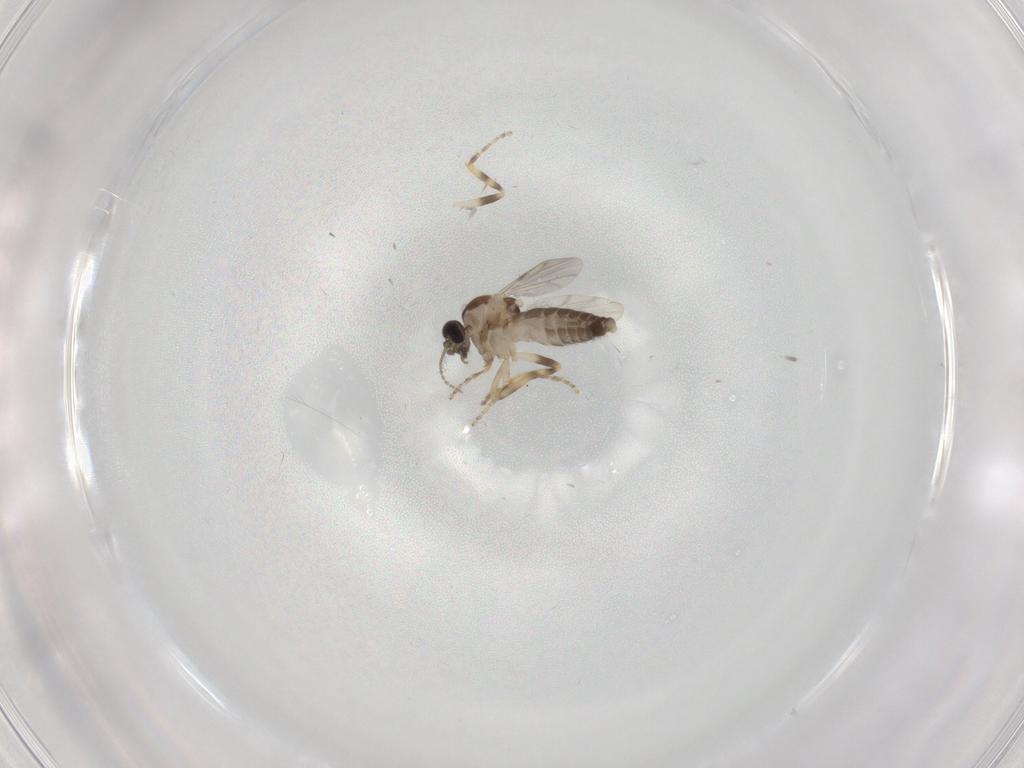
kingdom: Animalia
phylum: Arthropoda
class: Insecta
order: Diptera
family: Ceratopogonidae
